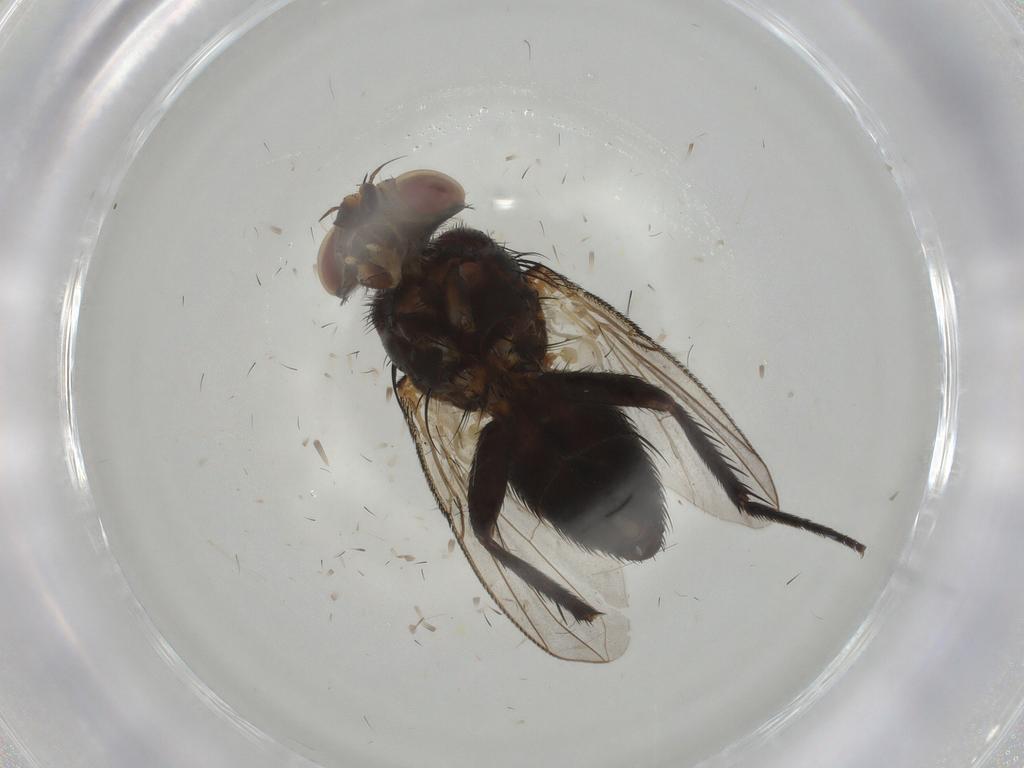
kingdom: Animalia
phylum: Arthropoda
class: Insecta
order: Diptera
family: Tachinidae
